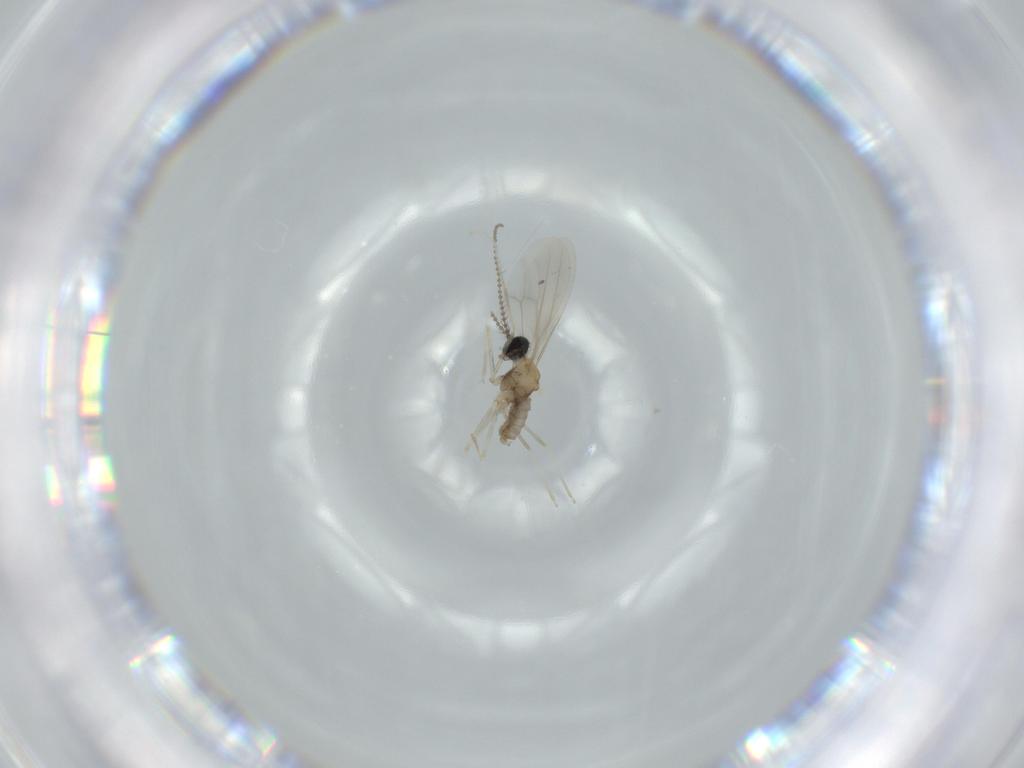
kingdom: Animalia
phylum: Arthropoda
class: Insecta
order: Diptera
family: Cecidomyiidae
